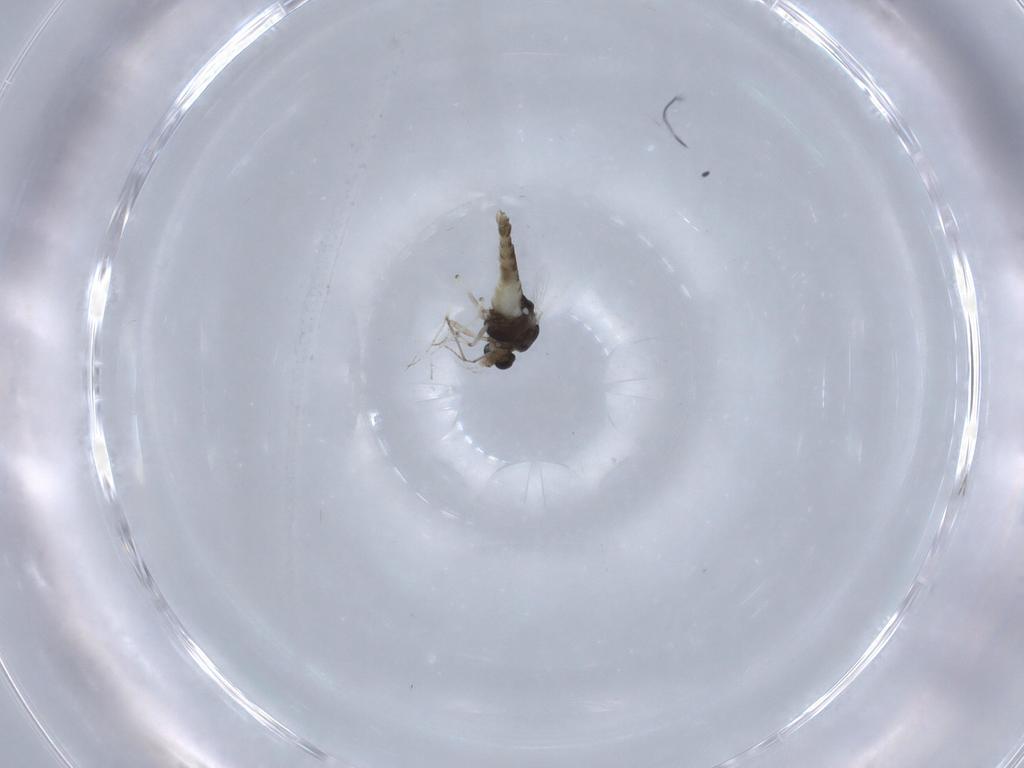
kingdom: Animalia
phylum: Arthropoda
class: Insecta
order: Diptera
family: Chironomidae
